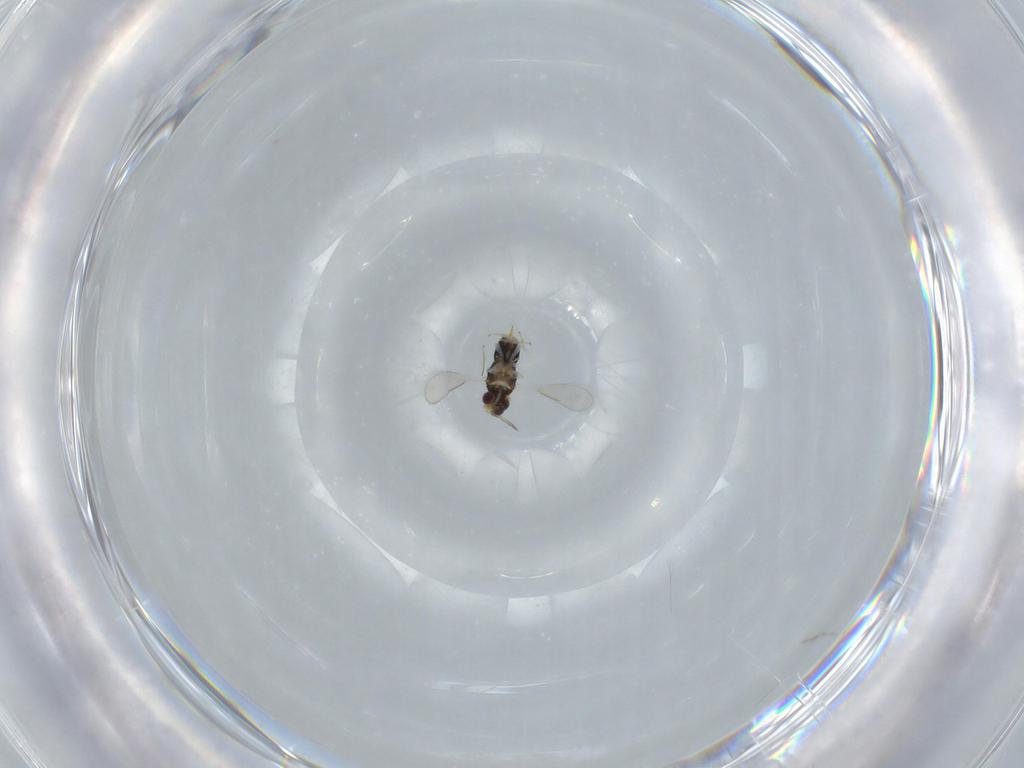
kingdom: Animalia
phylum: Arthropoda
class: Insecta
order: Hymenoptera
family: Aphelinidae
